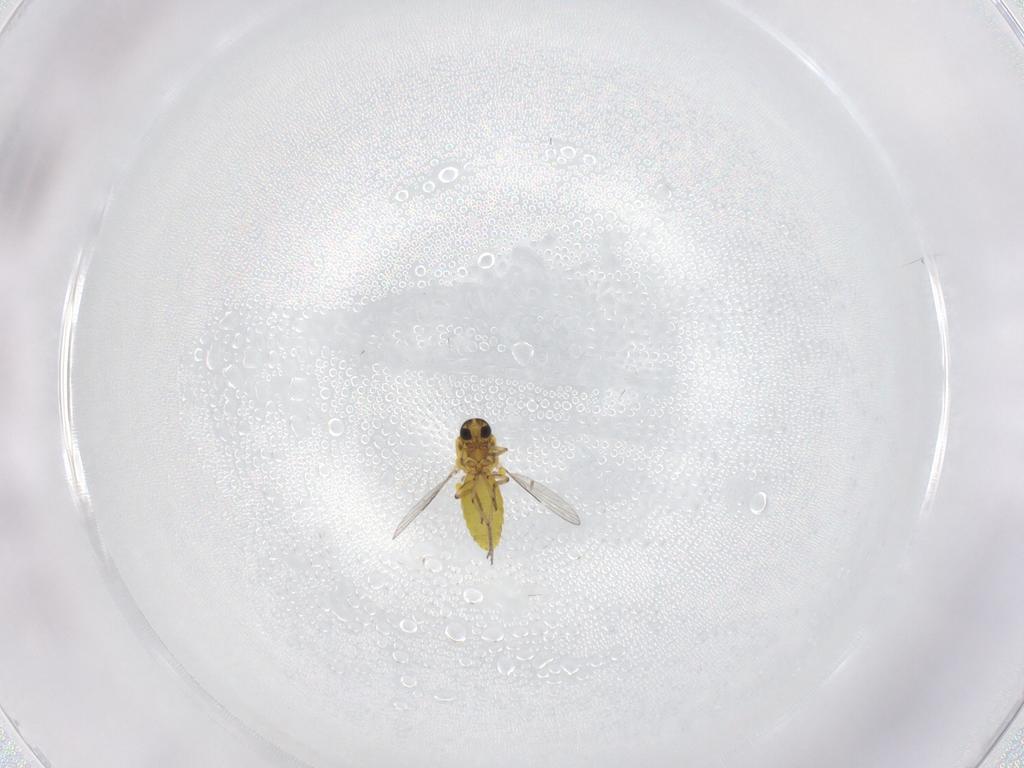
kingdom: Animalia
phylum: Arthropoda
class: Insecta
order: Diptera
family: Ceratopogonidae
